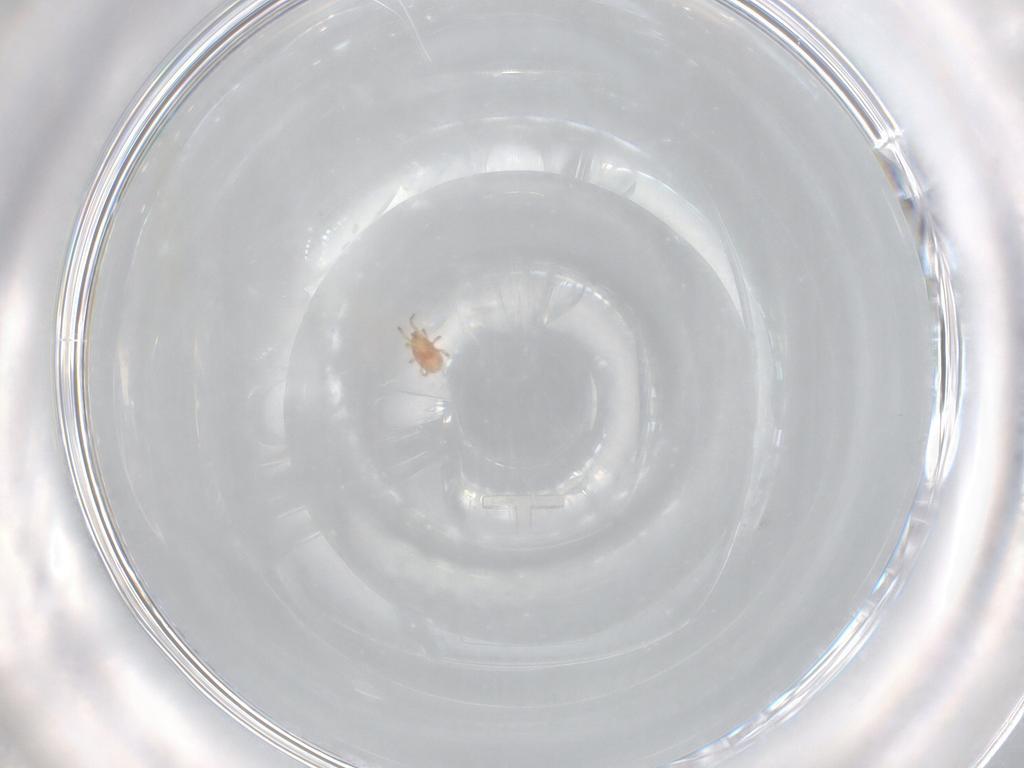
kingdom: Animalia
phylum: Arthropoda
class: Arachnida
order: Mesostigmata
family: Phytoseiidae
